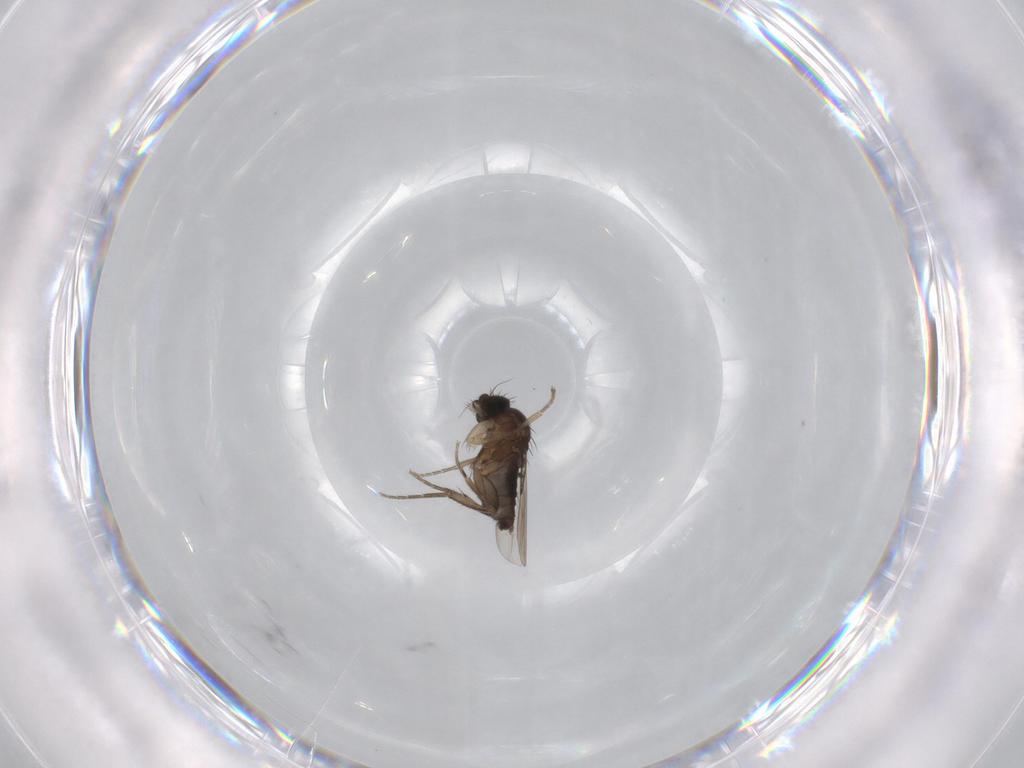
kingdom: Animalia
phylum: Arthropoda
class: Insecta
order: Diptera
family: Phoridae
